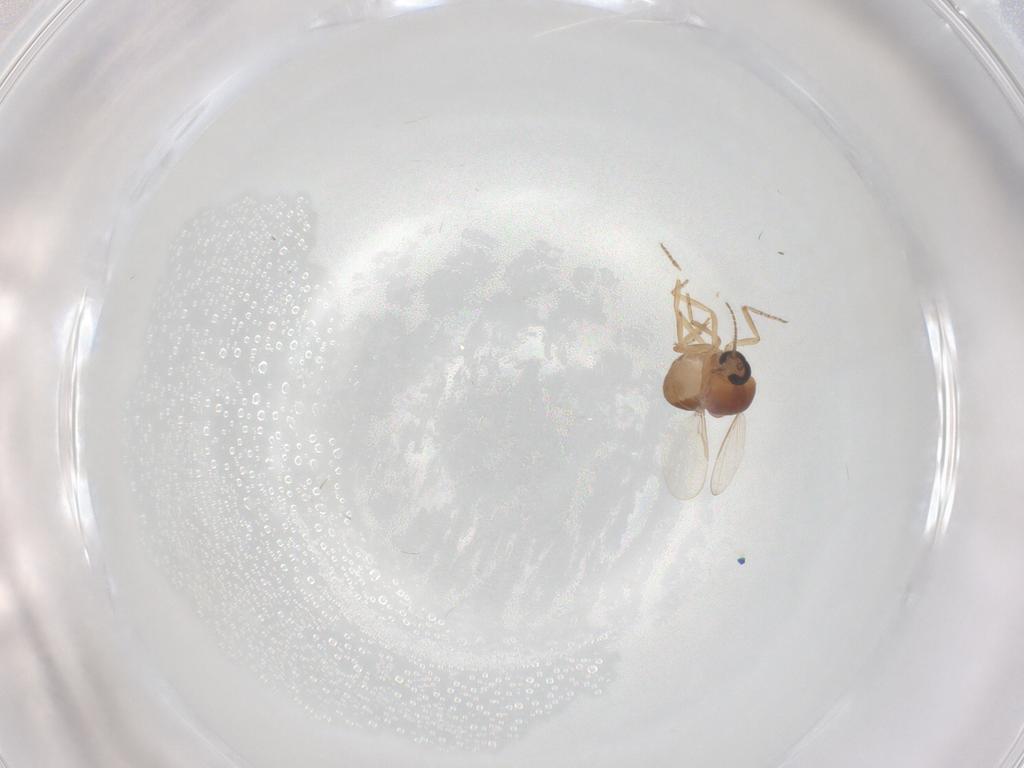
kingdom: Animalia
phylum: Arthropoda
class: Insecta
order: Diptera
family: Ceratopogonidae
